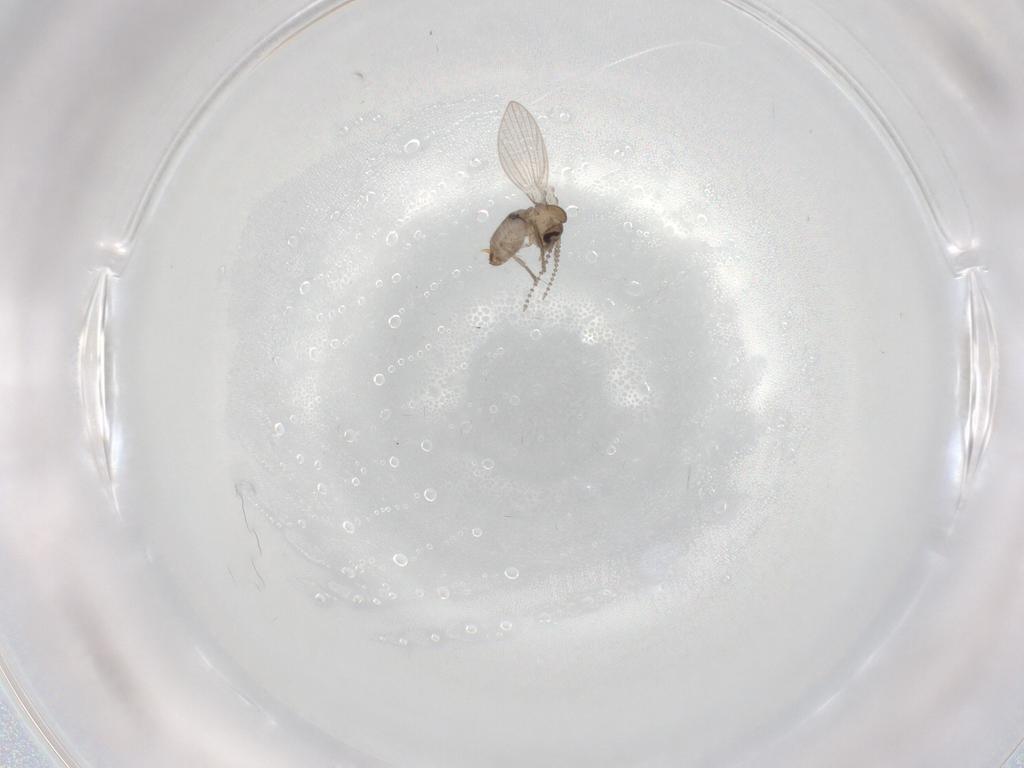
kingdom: Animalia
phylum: Arthropoda
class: Insecta
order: Diptera
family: Psychodidae
